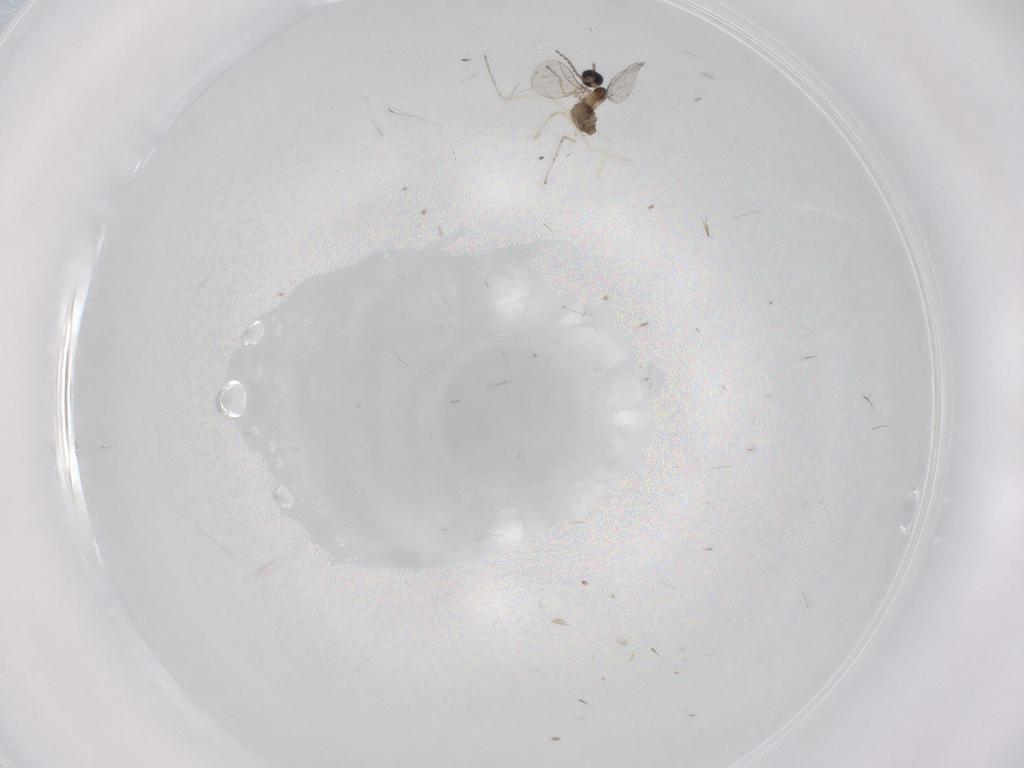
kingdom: Animalia
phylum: Arthropoda
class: Insecta
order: Diptera
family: Cecidomyiidae
